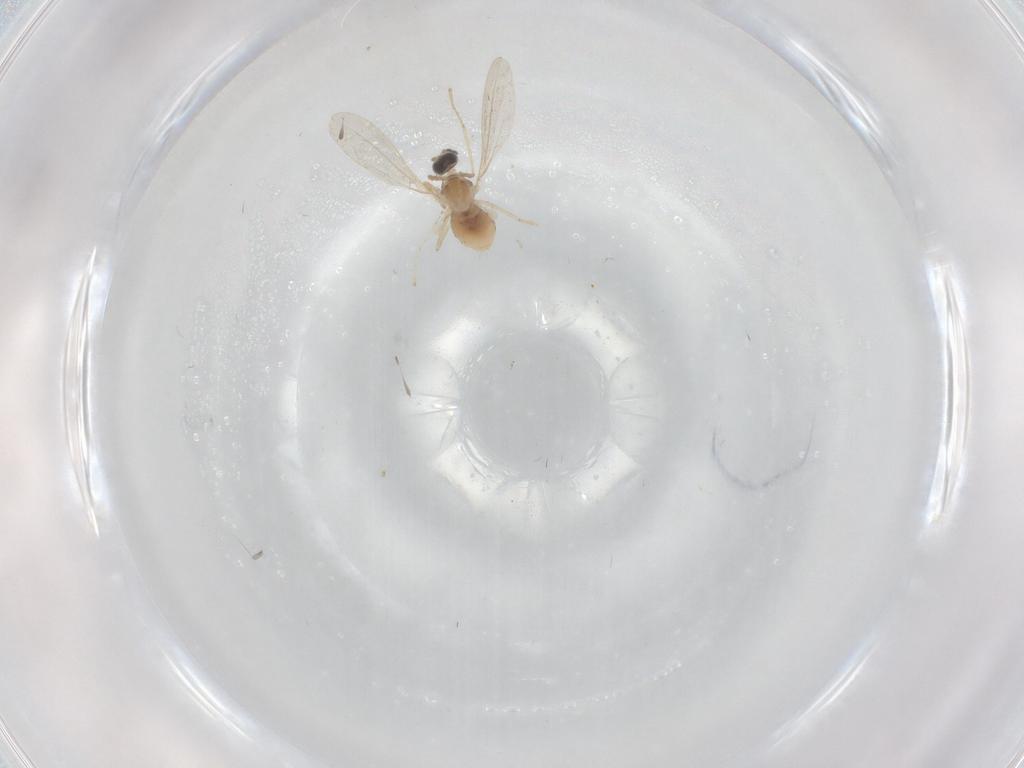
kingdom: Animalia
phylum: Arthropoda
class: Insecta
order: Diptera
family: Cecidomyiidae
